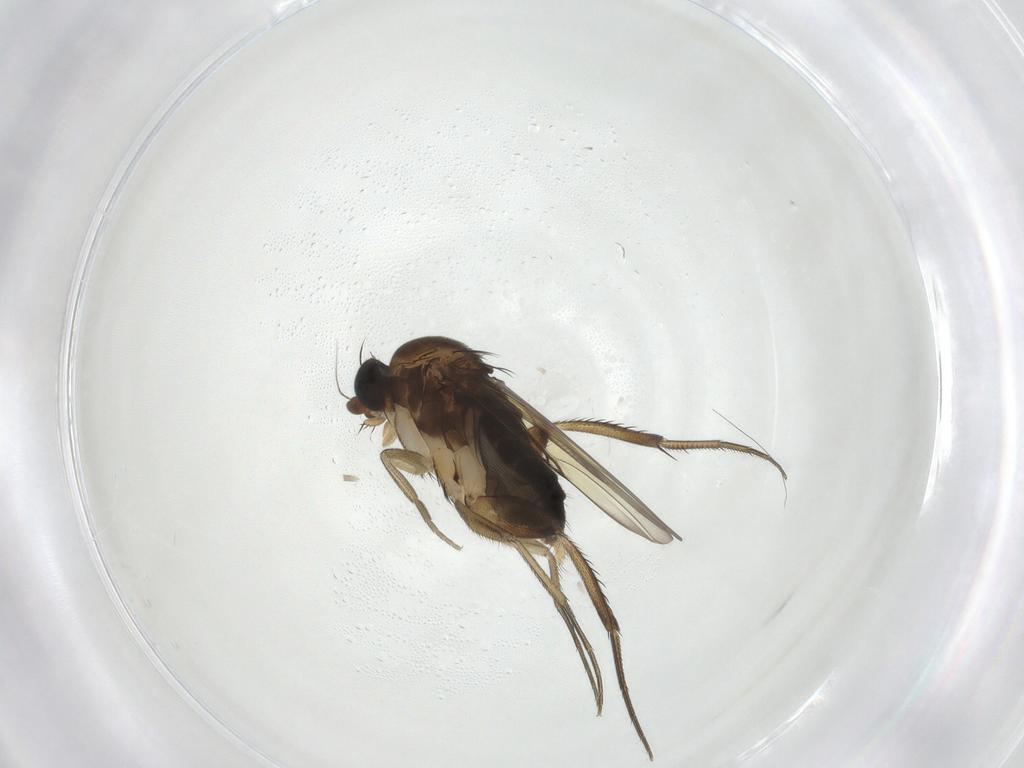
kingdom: Animalia
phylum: Arthropoda
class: Insecta
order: Diptera
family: Phoridae
